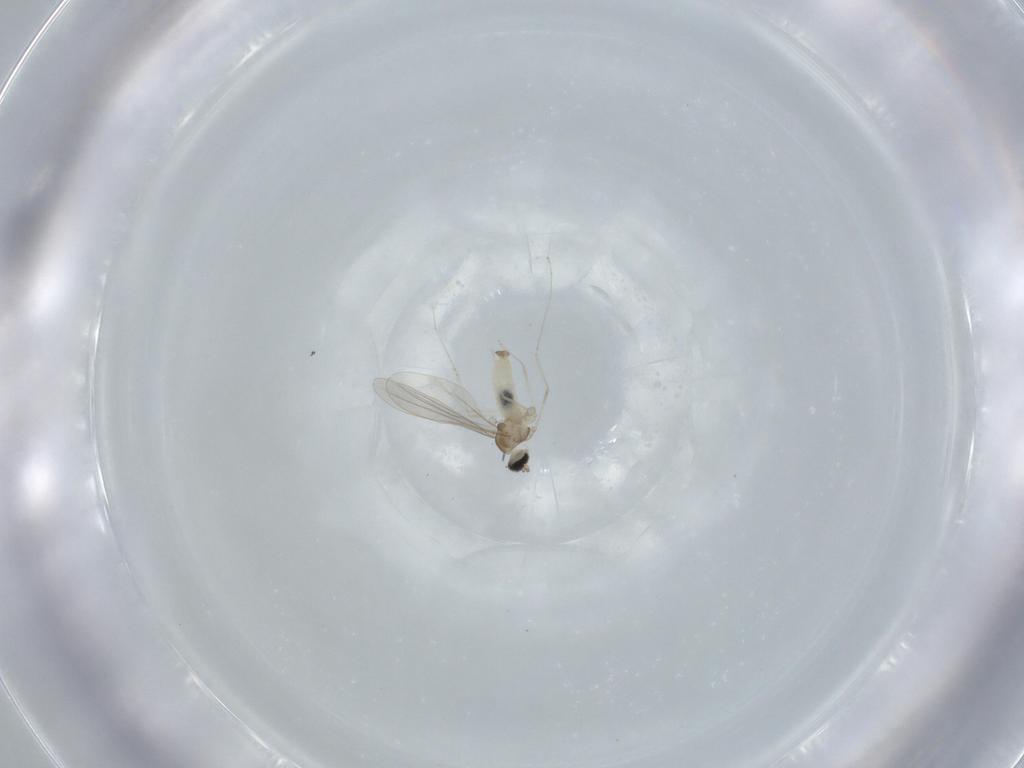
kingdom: Animalia
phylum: Arthropoda
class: Insecta
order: Diptera
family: Cecidomyiidae
